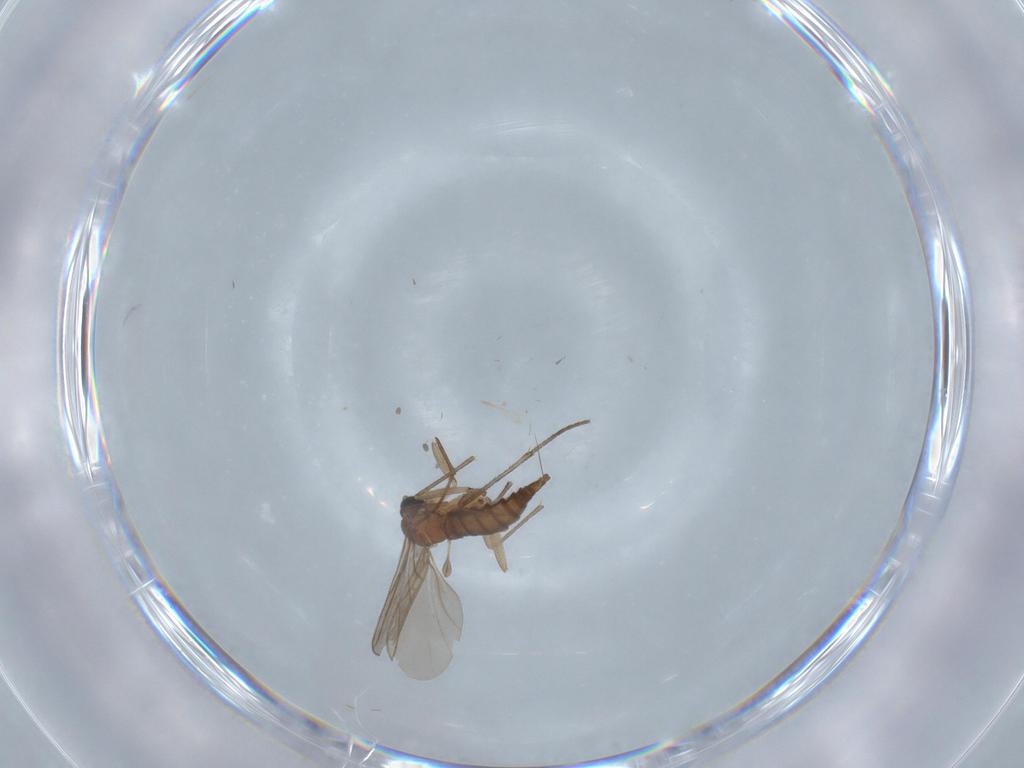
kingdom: Animalia
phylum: Arthropoda
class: Insecta
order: Diptera
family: Sciaridae
